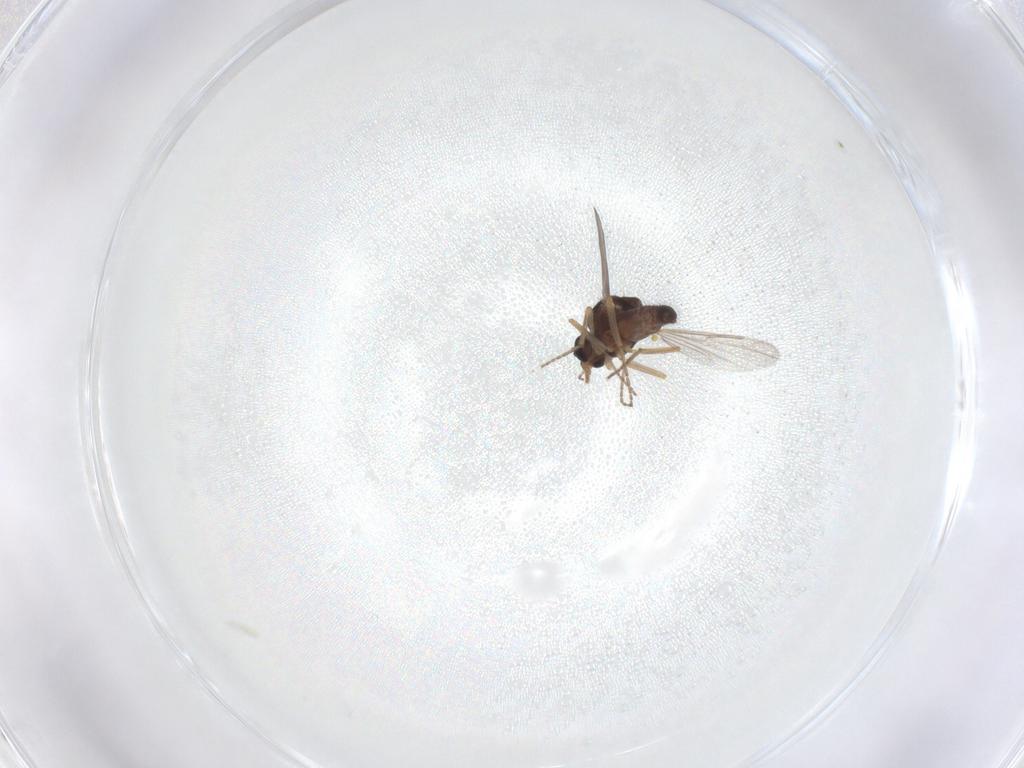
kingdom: Animalia
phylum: Arthropoda
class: Insecta
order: Diptera
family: Ceratopogonidae
